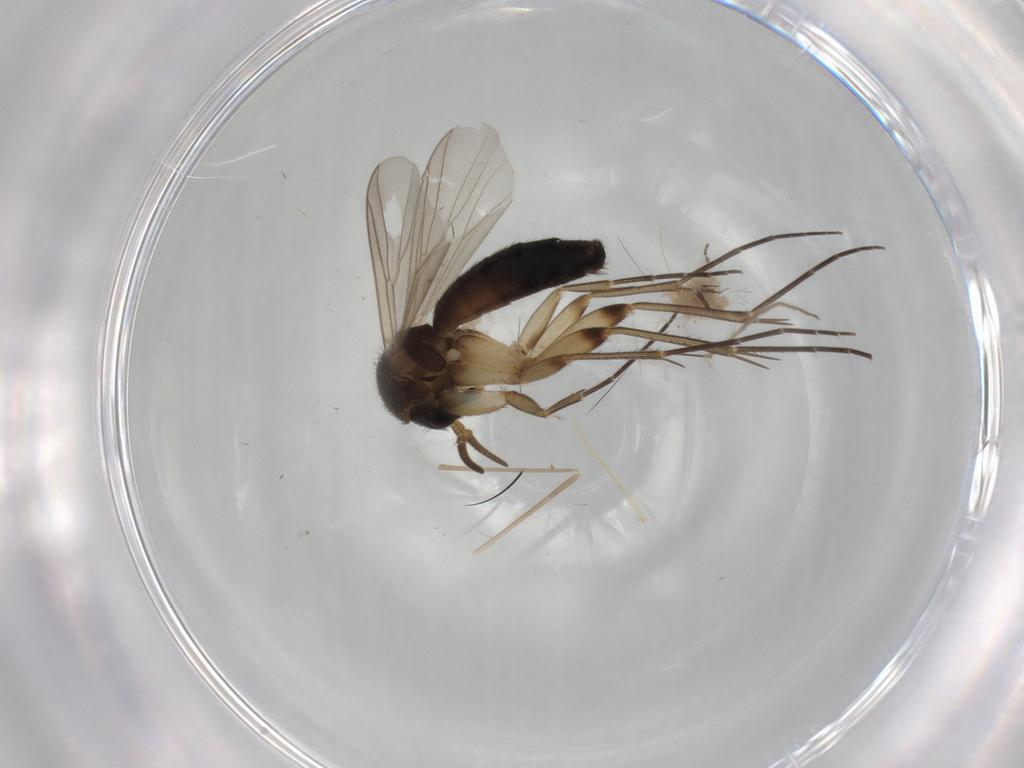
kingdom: Animalia
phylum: Arthropoda
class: Insecta
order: Diptera
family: Mycetophilidae
